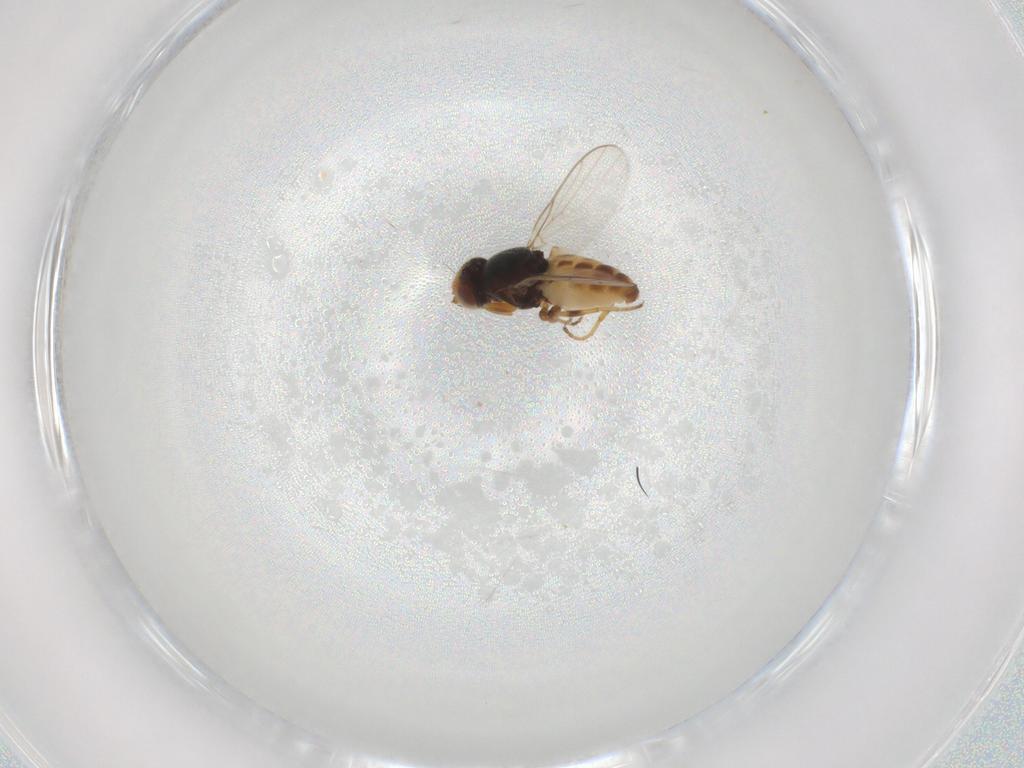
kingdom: Animalia
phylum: Arthropoda
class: Insecta
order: Diptera
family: Chloropidae
